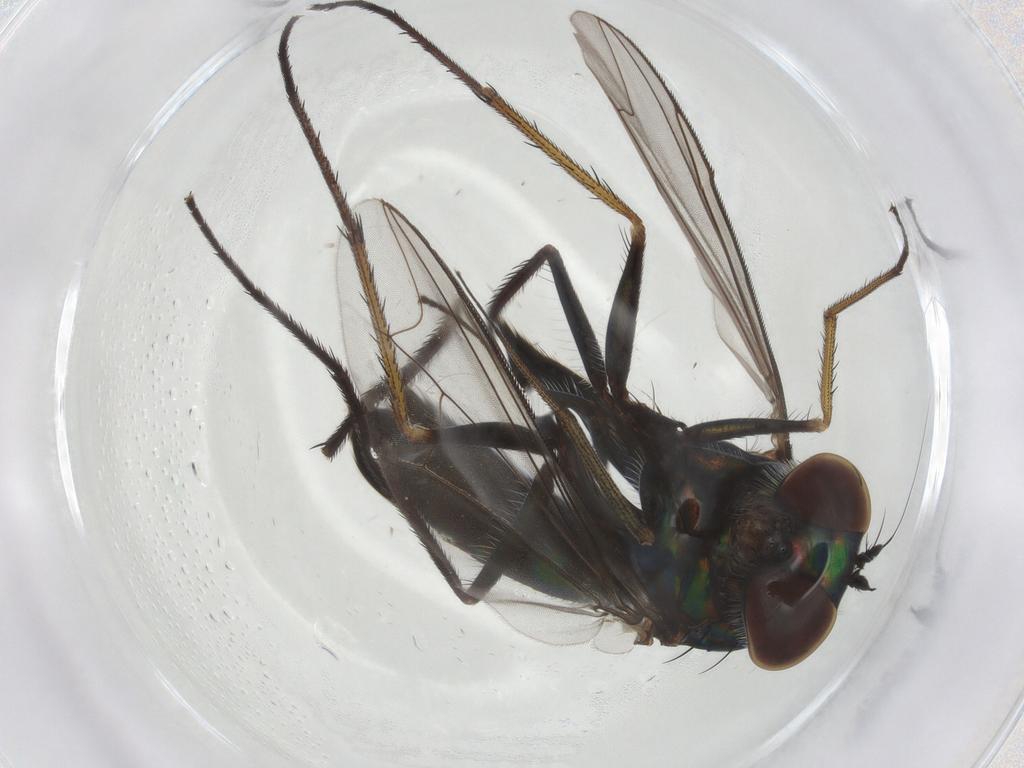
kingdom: Animalia
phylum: Arthropoda
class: Insecta
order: Diptera
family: Dolichopodidae
